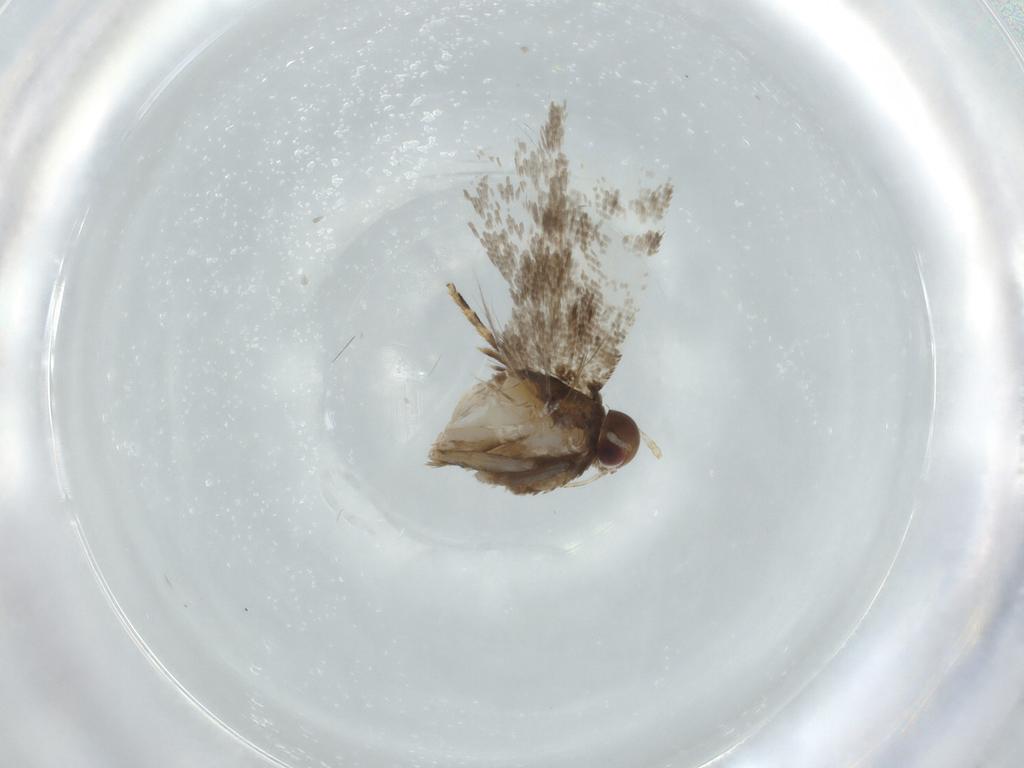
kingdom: Animalia
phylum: Arthropoda
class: Insecta
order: Lepidoptera
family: Gelechiidae
